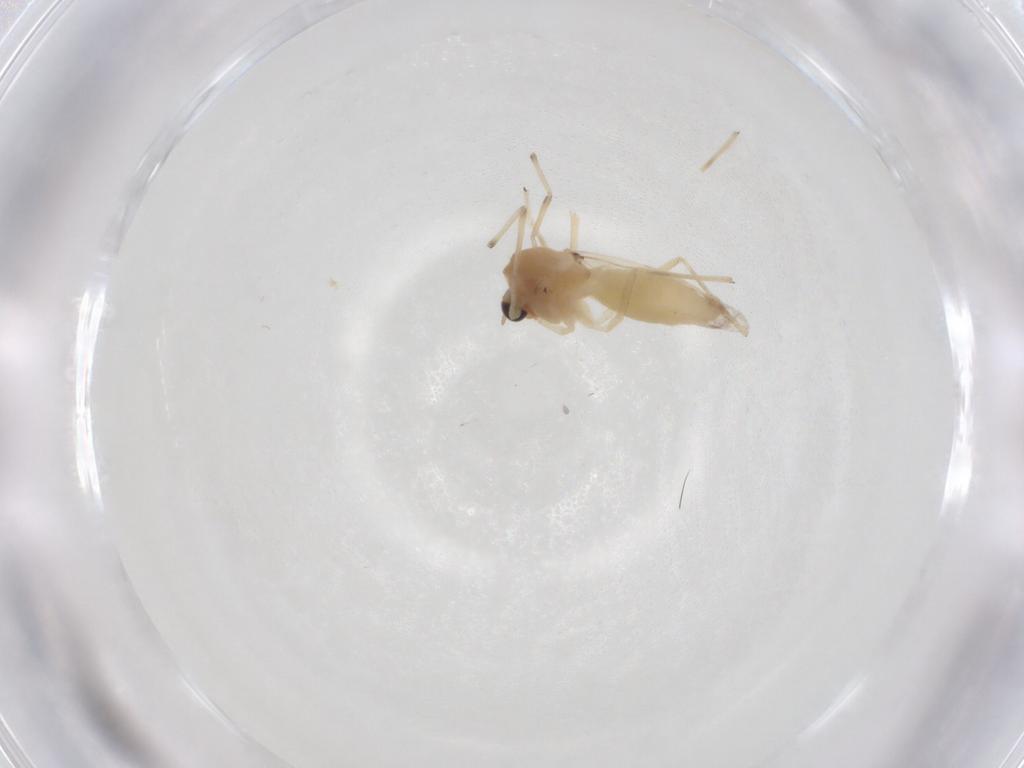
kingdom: Animalia
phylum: Arthropoda
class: Insecta
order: Diptera
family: Chironomidae
